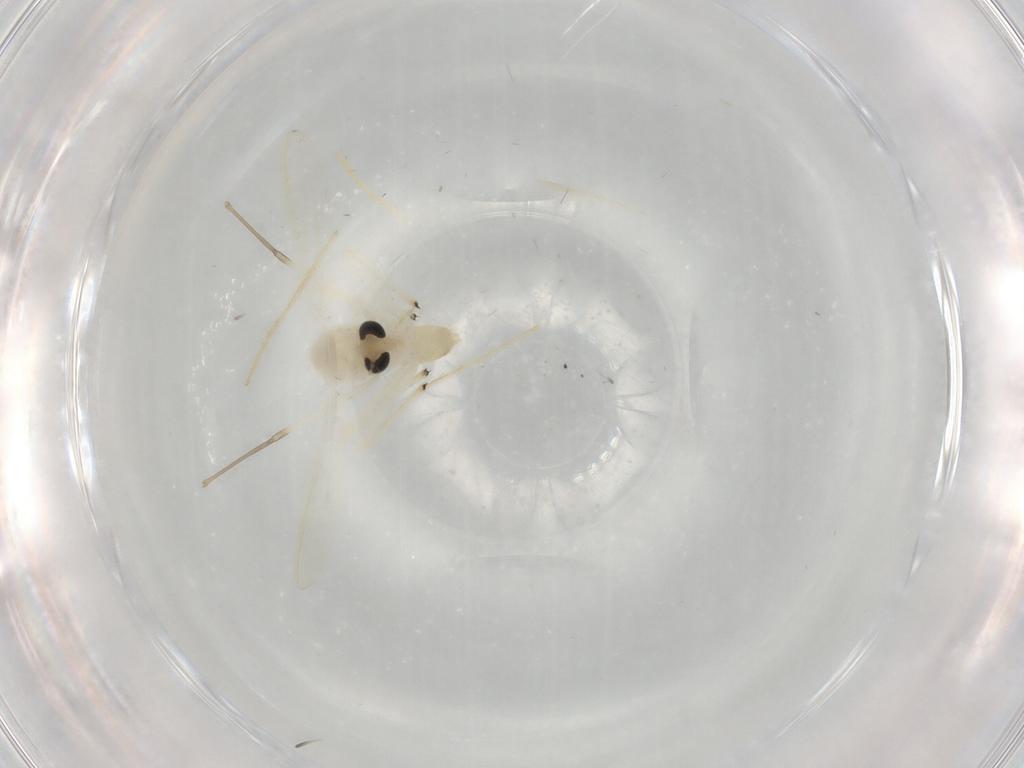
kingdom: Animalia
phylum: Arthropoda
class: Insecta
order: Diptera
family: Chironomidae
